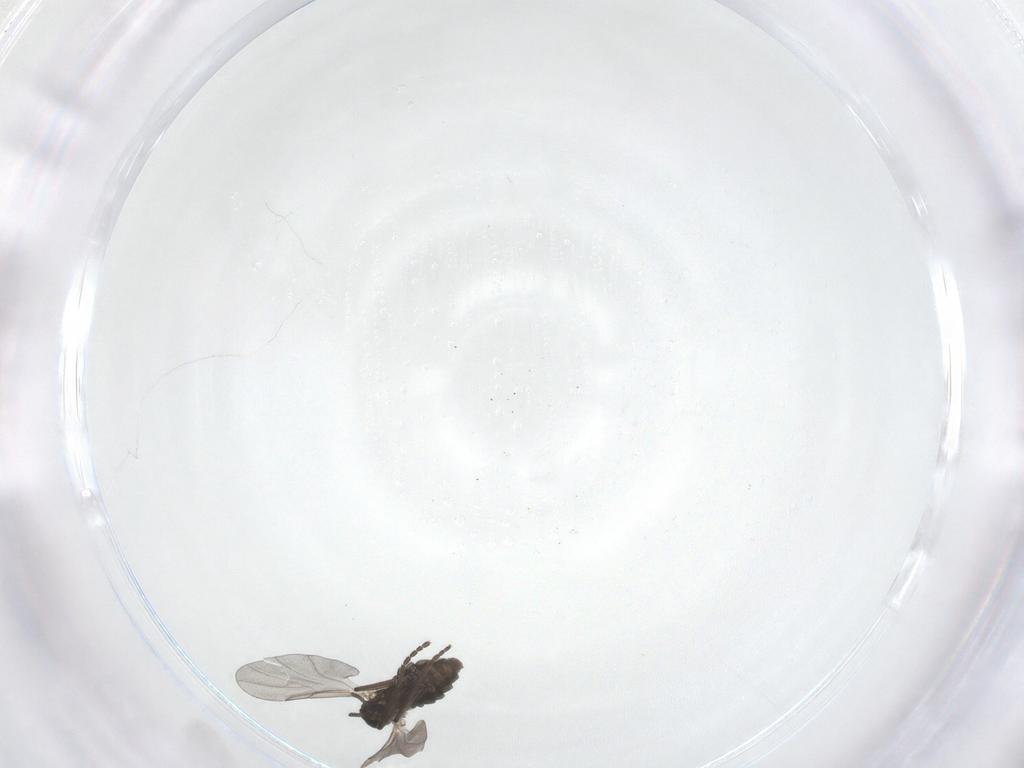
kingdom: Animalia
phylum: Arthropoda
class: Insecta
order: Diptera
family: Cecidomyiidae
